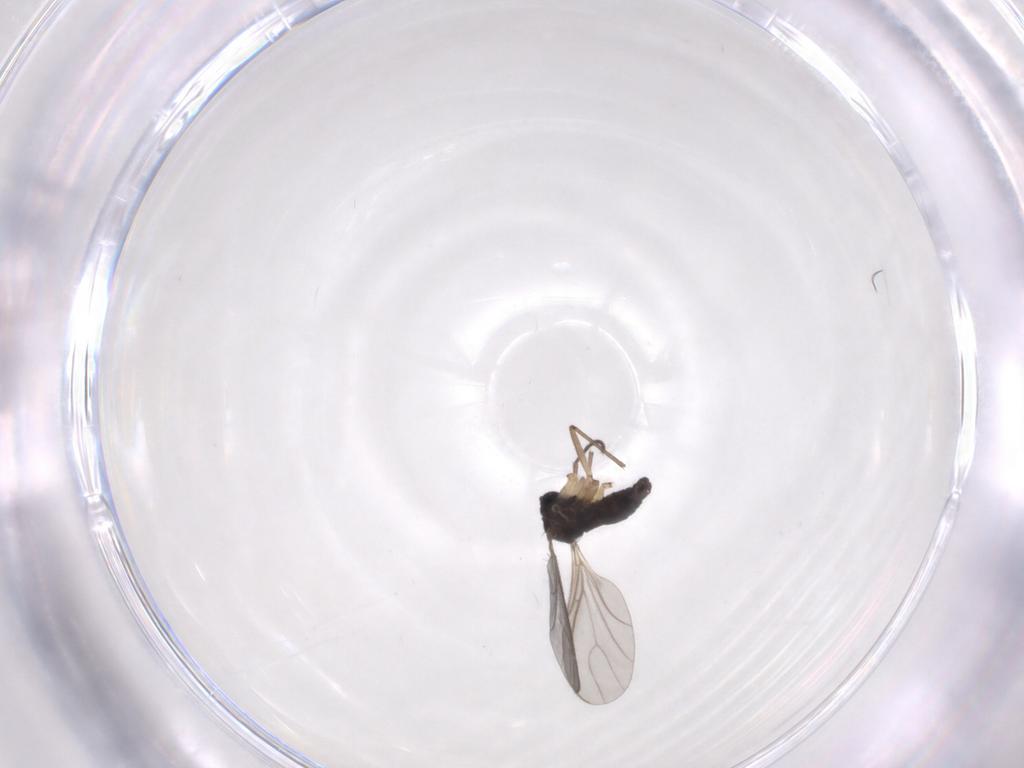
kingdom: Animalia
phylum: Arthropoda
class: Insecta
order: Diptera
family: Sciaridae
